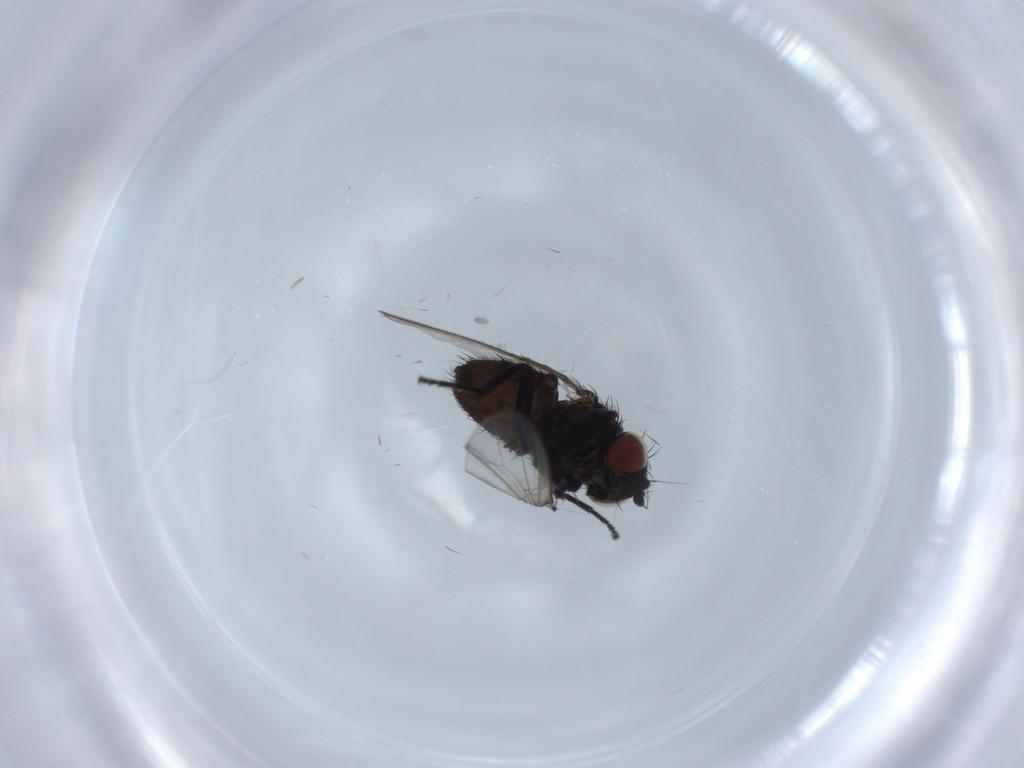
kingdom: Animalia
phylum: Arthropoda
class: Insecta
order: Diptera
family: Milichiidae
